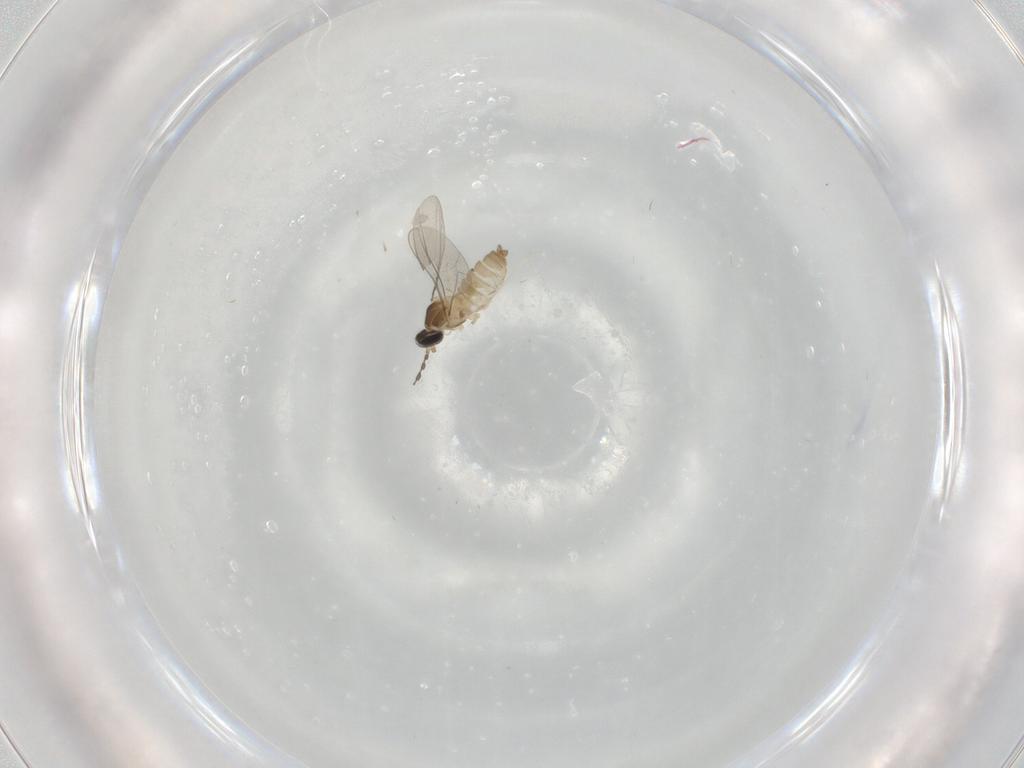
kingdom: Animalia
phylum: Arthropoda
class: Insecta
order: Diptera
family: Cecidomyiidae
